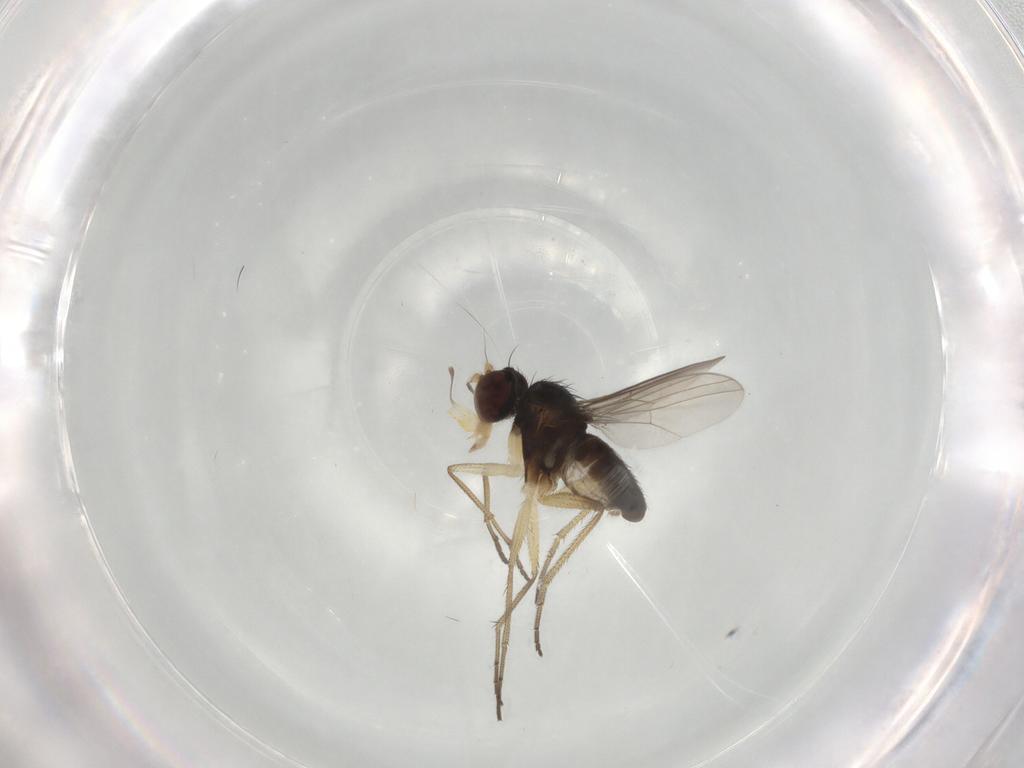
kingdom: Animalia
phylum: Arthropoda
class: Insecta
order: Diptera
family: Dolichopodidae
